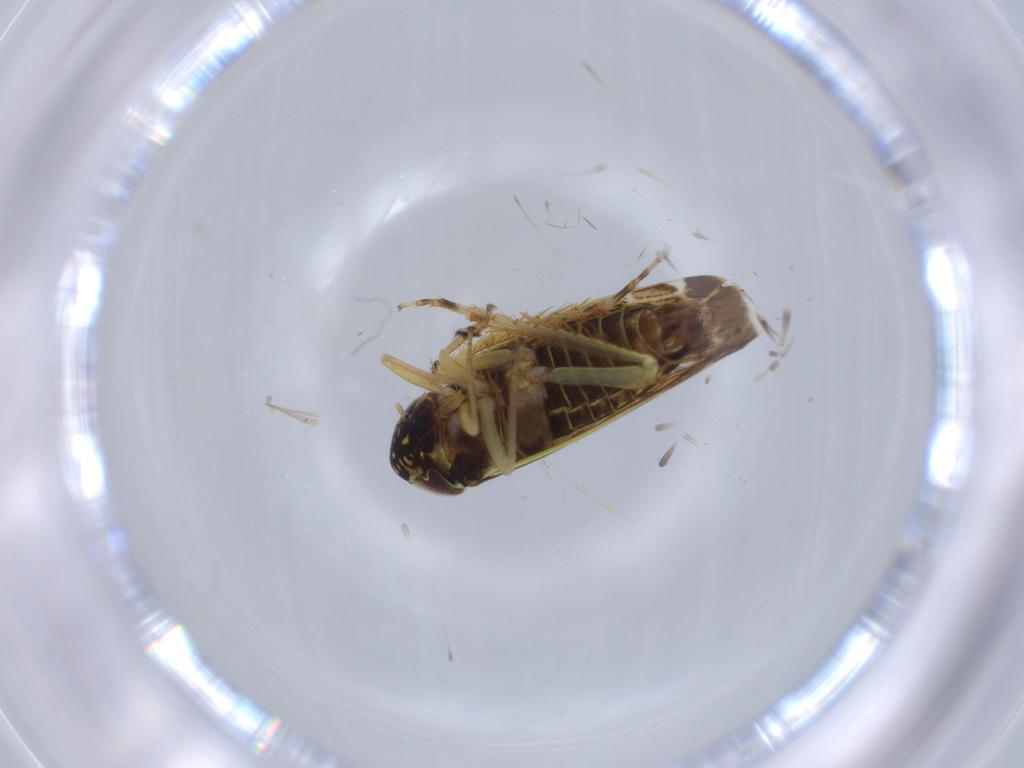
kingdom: Animalia
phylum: Arthropoda
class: Insecta
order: Hemiptera
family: Cicadellidae
